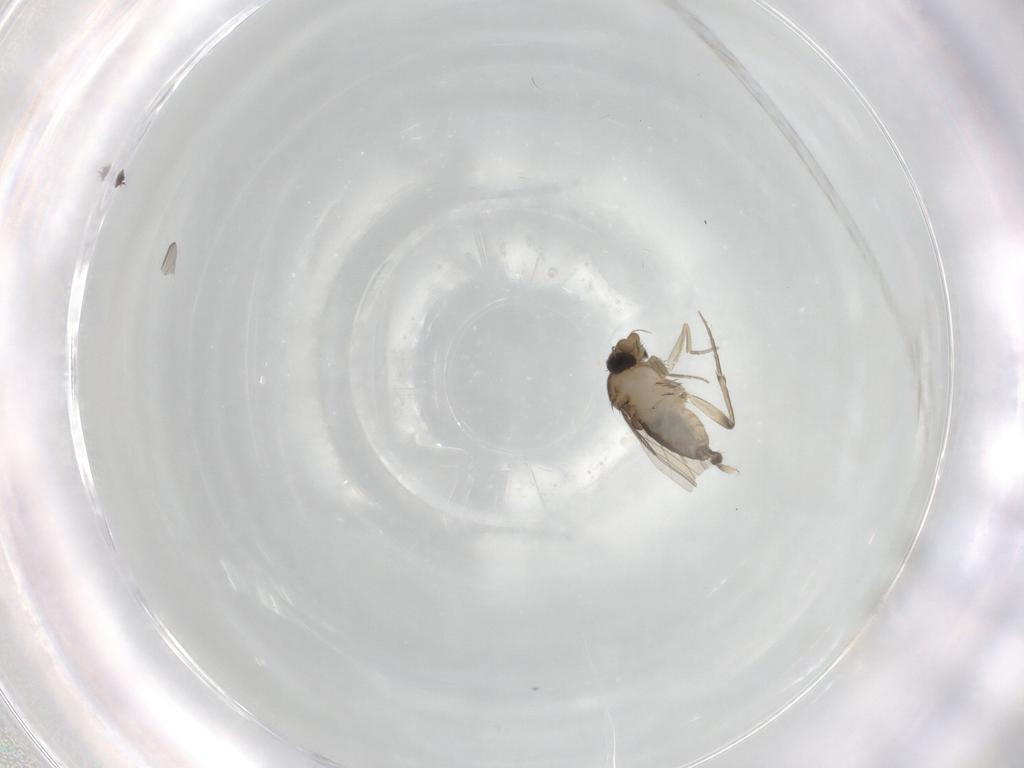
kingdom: Animalia
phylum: Arthropoda
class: Insecta
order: Diptera
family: Phoridae
